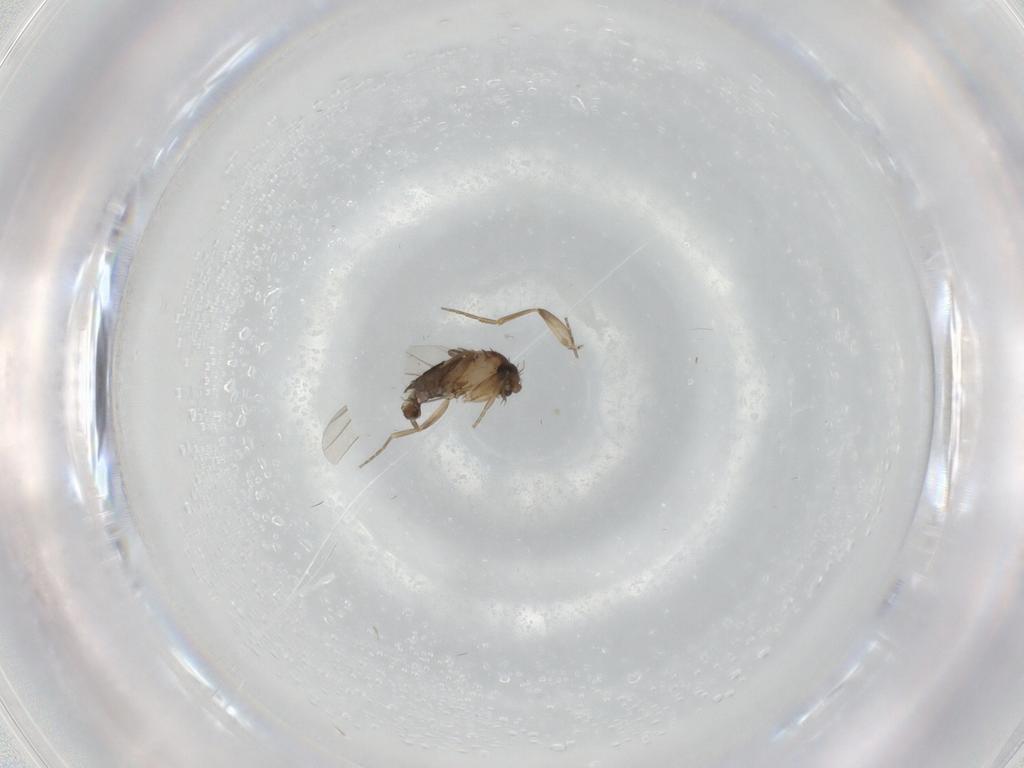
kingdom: Animalia
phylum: Arthropoda
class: Insecta
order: Diptera
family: Phoridae
